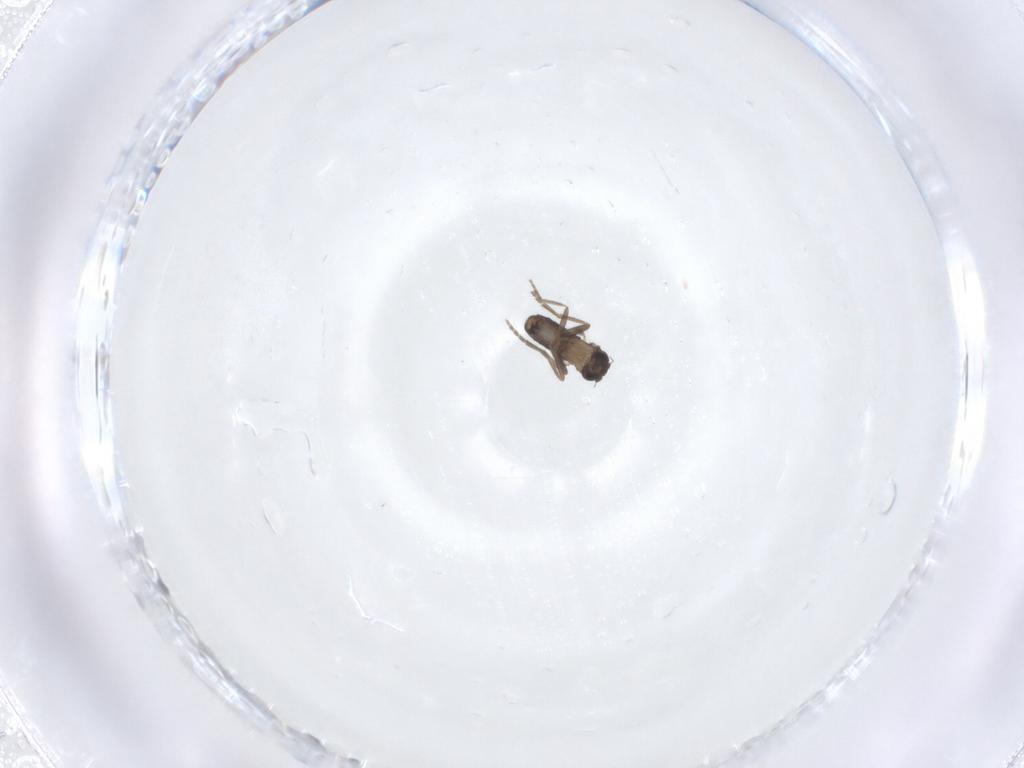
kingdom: Animalia
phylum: Arthropoda
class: Insecta
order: Diptera
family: Phoridae
